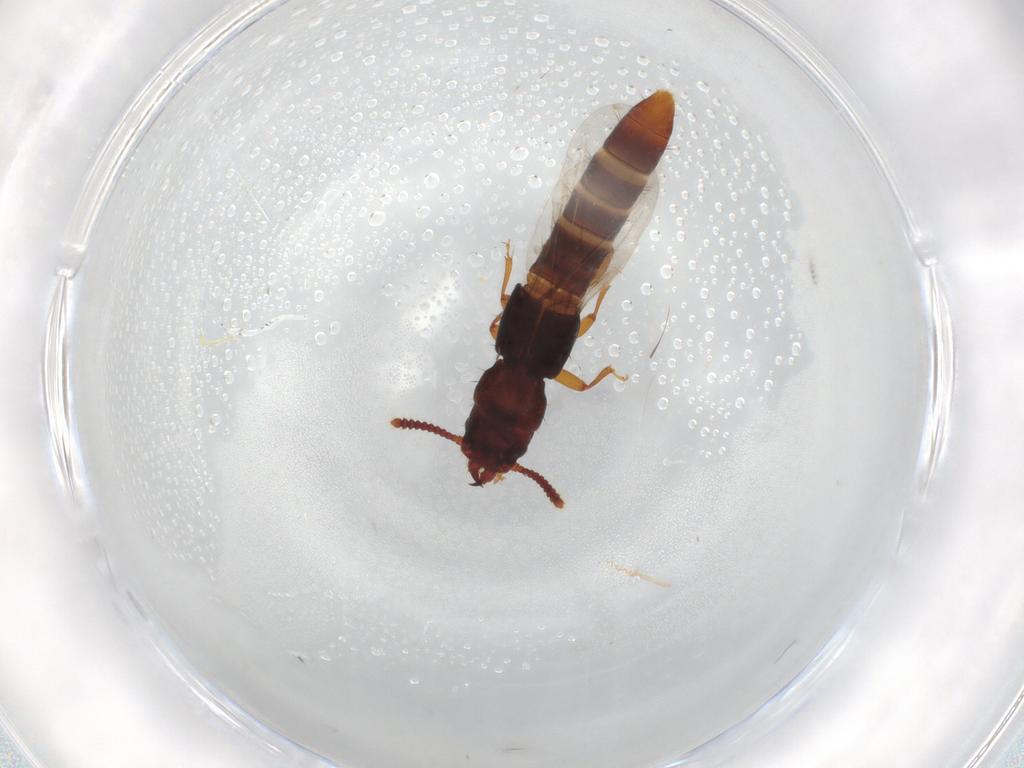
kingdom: Animalia
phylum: Arthropoda
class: Insecta
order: Coleoptera
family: Staphylinidae
